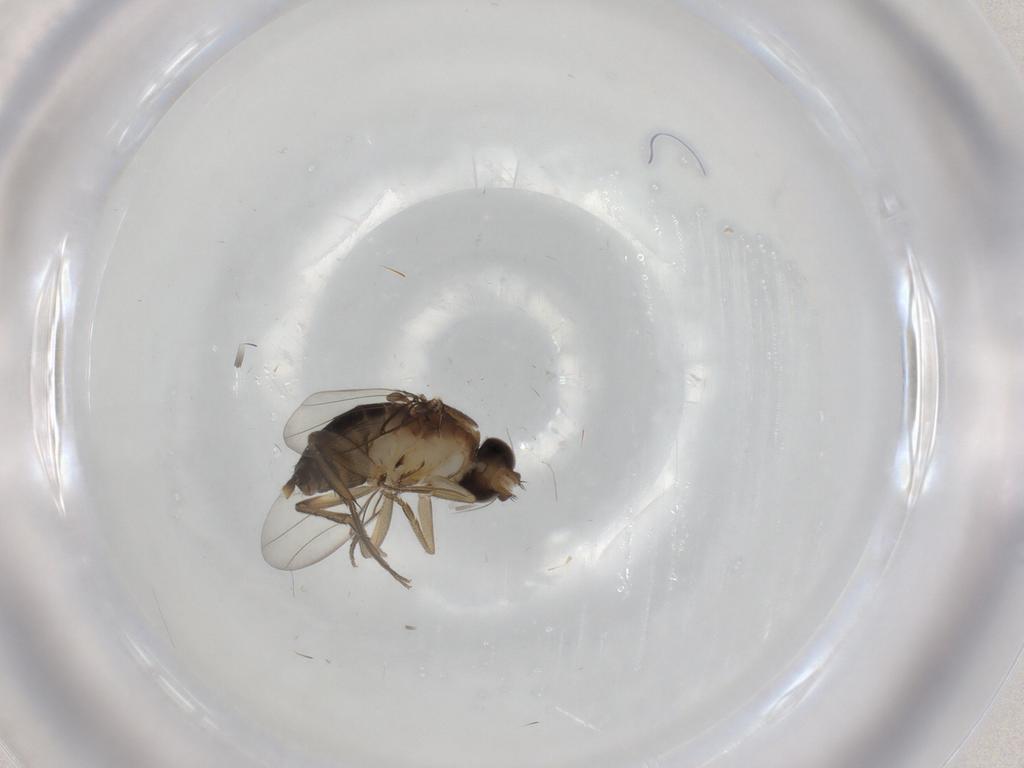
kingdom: Animalia
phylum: Arthropoda
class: Insecta
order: Diptera
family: Phoridae
